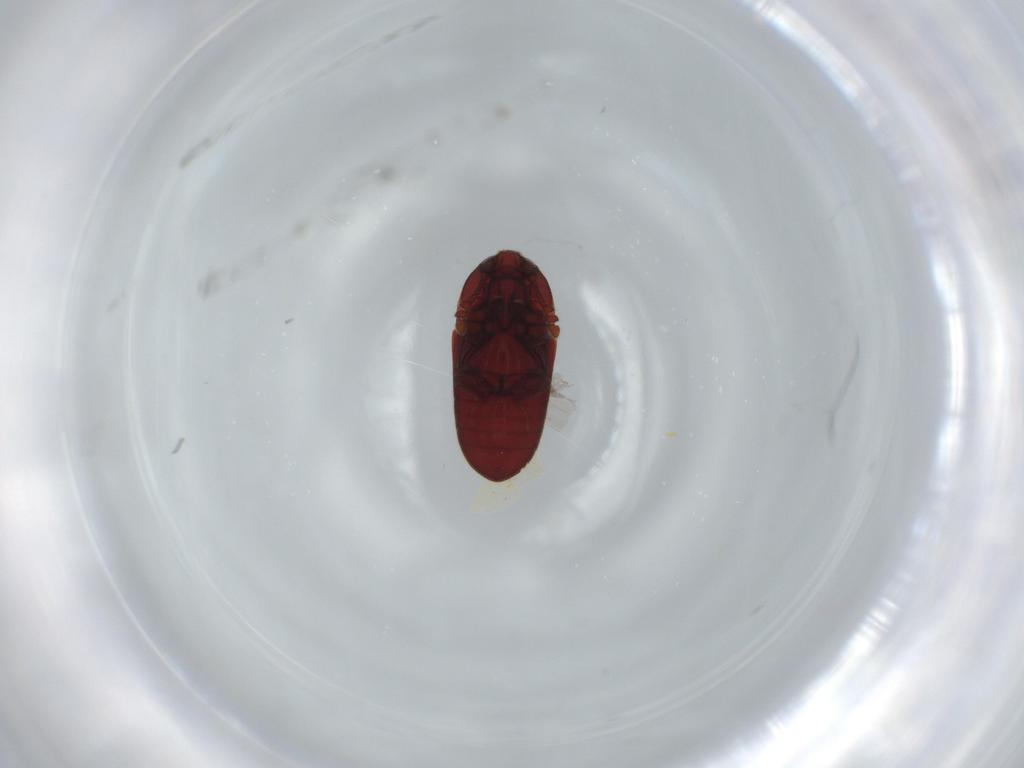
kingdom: Animalia
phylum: Arthropoda
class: Insecta
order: Coleoptera
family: Throscidae
